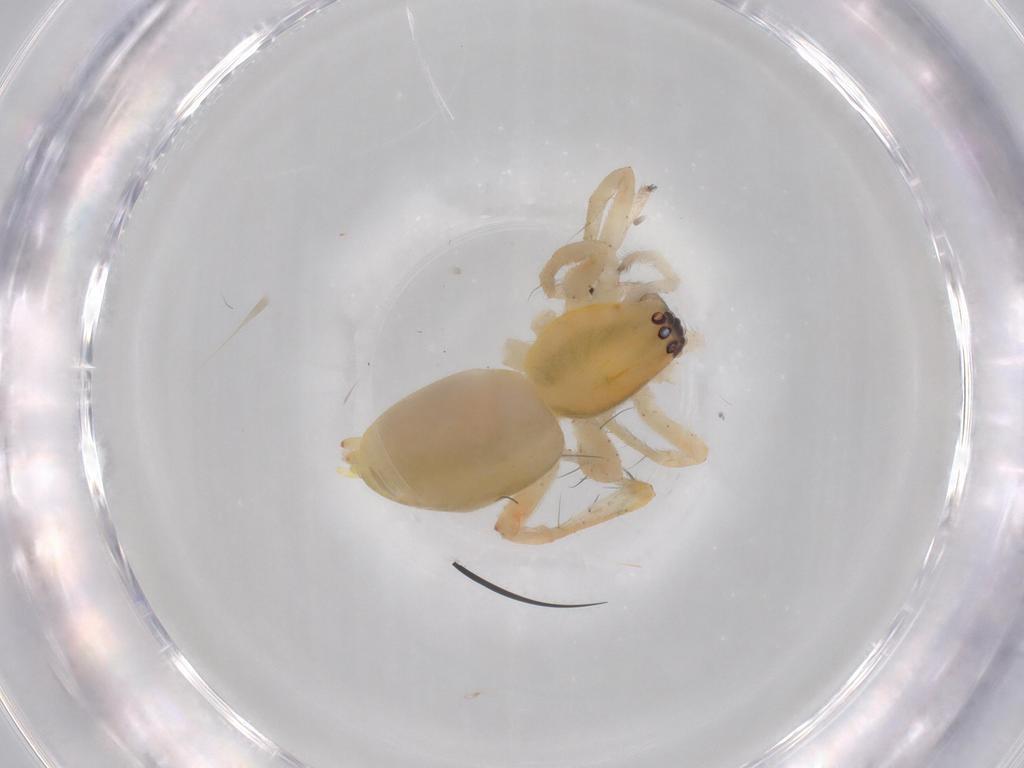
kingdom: Animalia
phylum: Arthropoda
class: Arachnida
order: Araneae
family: Anyphaenidae
